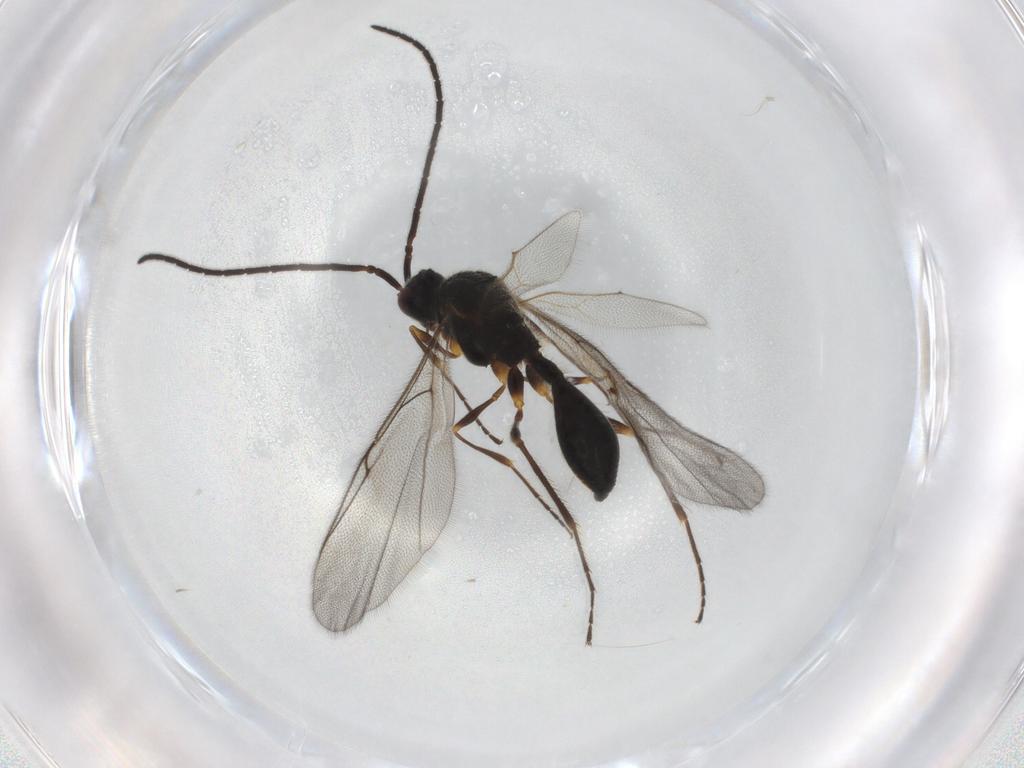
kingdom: Animalia
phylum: Arthropoda
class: Insecta
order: Hymenoptera
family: Diapriidae
